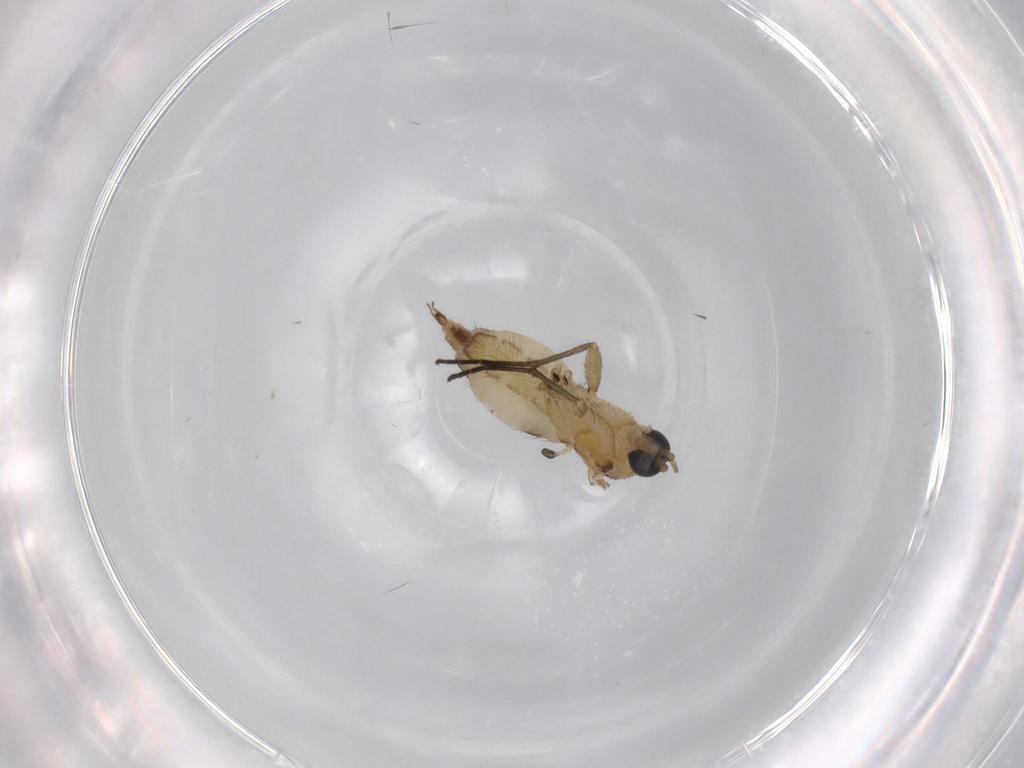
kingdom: Animalia
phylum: Arthropoda
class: Insecta
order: Diptera
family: Sciaridae
